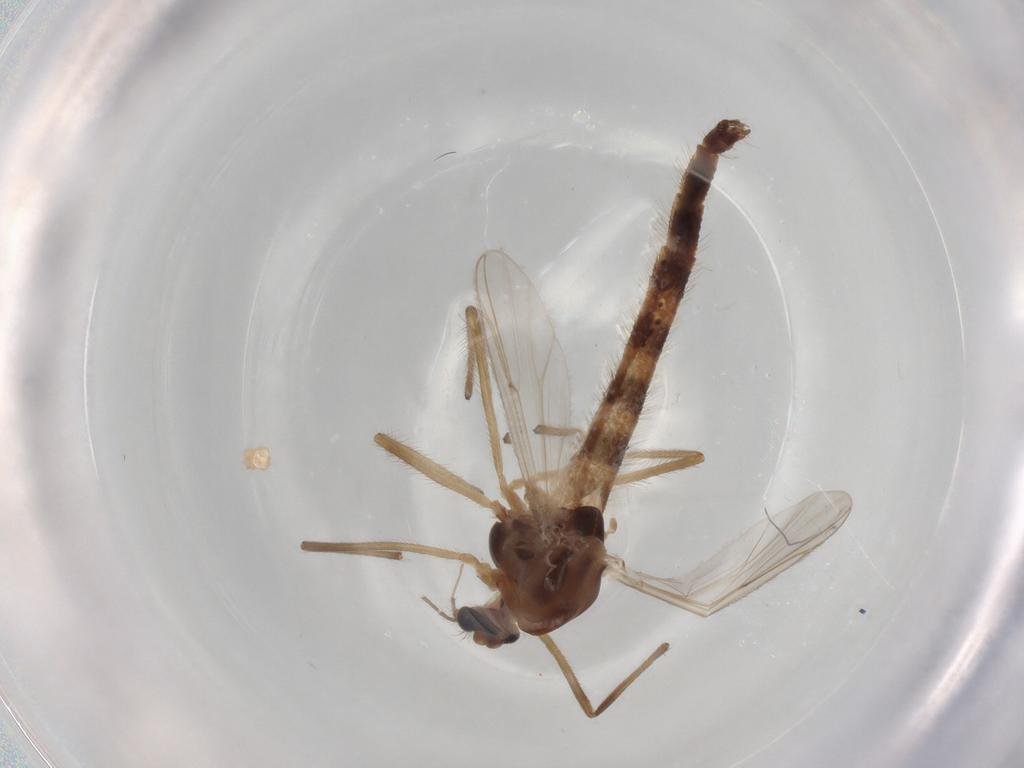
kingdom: Animalia
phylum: Arthropoda
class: Insecta
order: Diptera
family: Chironomidae
